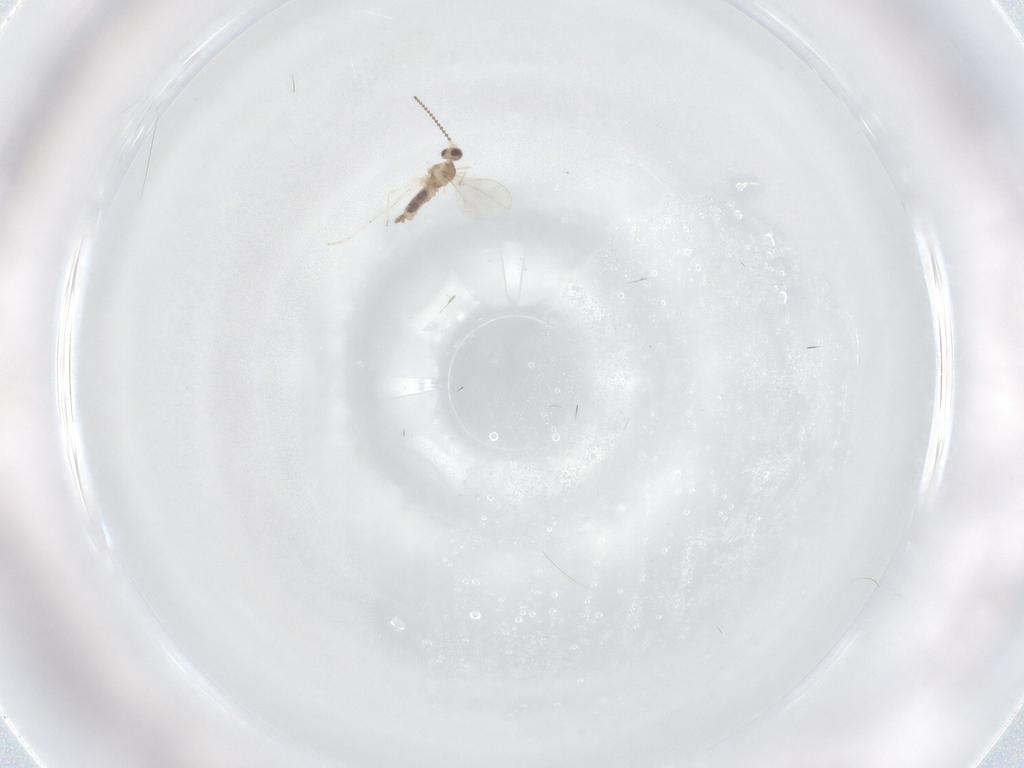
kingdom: Animalia
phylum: Arthropoda
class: Insecta
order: Diptera
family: Cecidomyiidae
